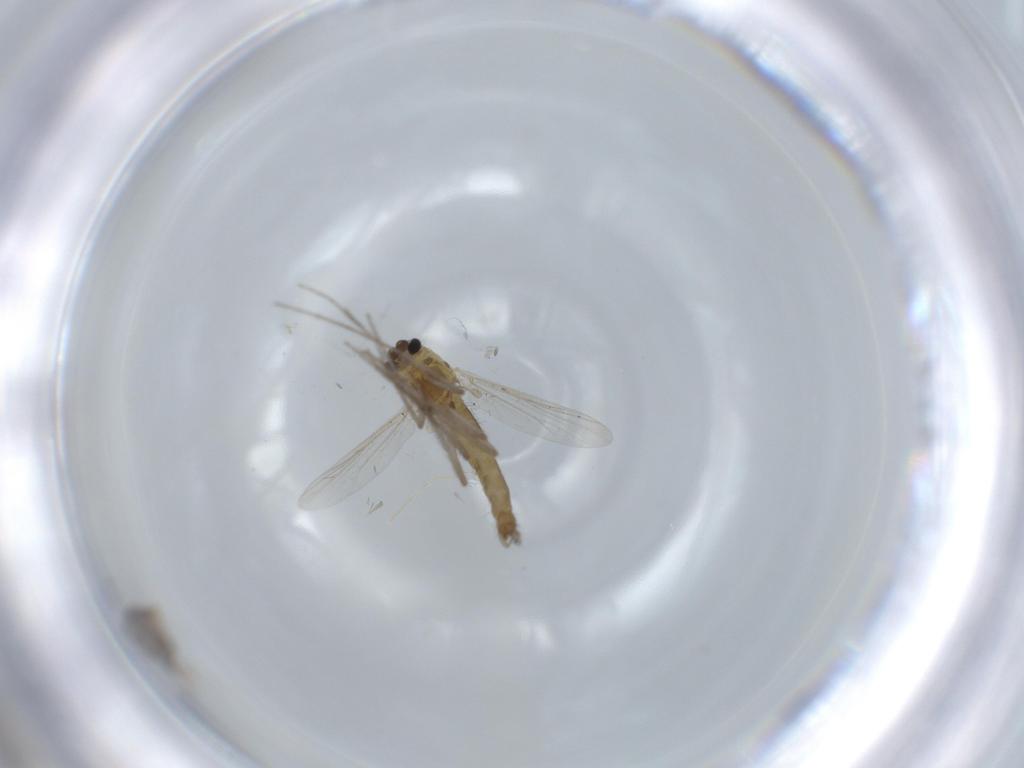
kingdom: Animalia
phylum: Arthropoda
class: Insecta
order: Diptera
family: Chironomidae
